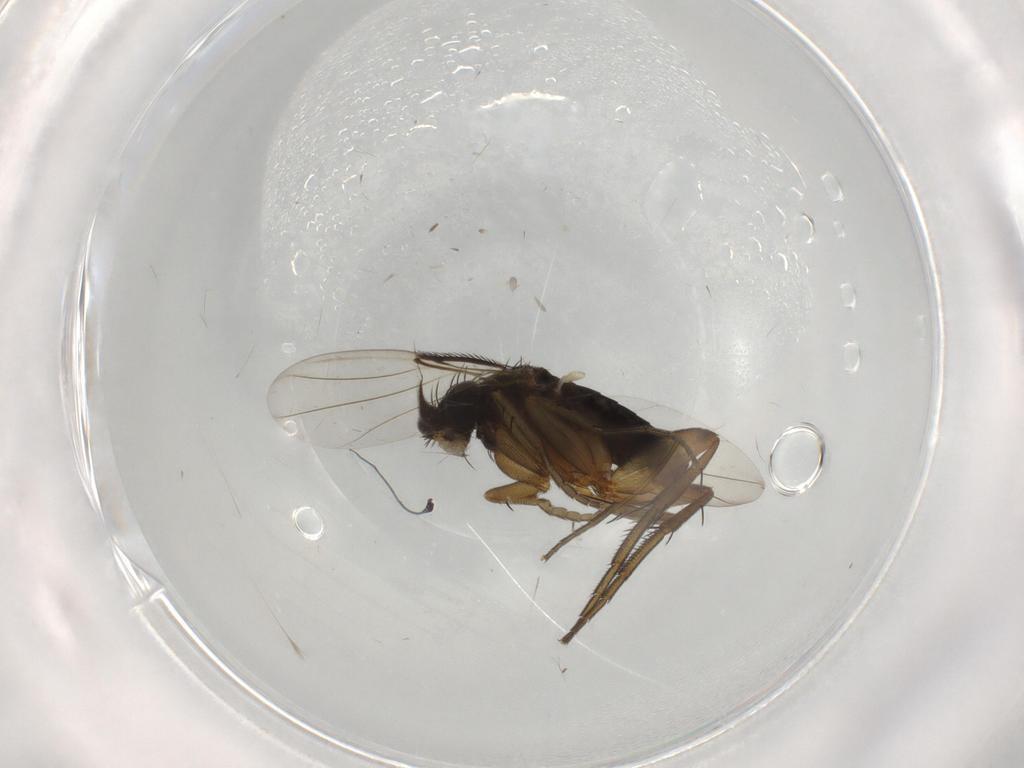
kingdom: Animalia
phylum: Arthropoda
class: Insecta
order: Diptera
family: Phoridae
